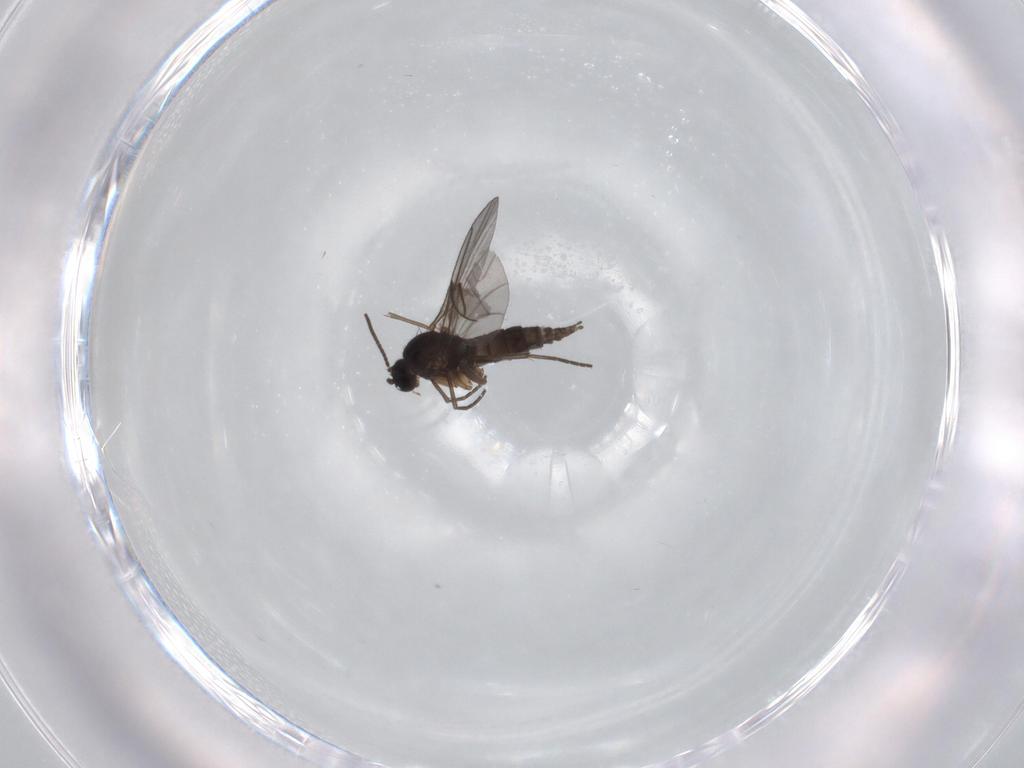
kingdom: Animalia
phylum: Arthropoda
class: Insecta
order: Diptera
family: Sciaridae
